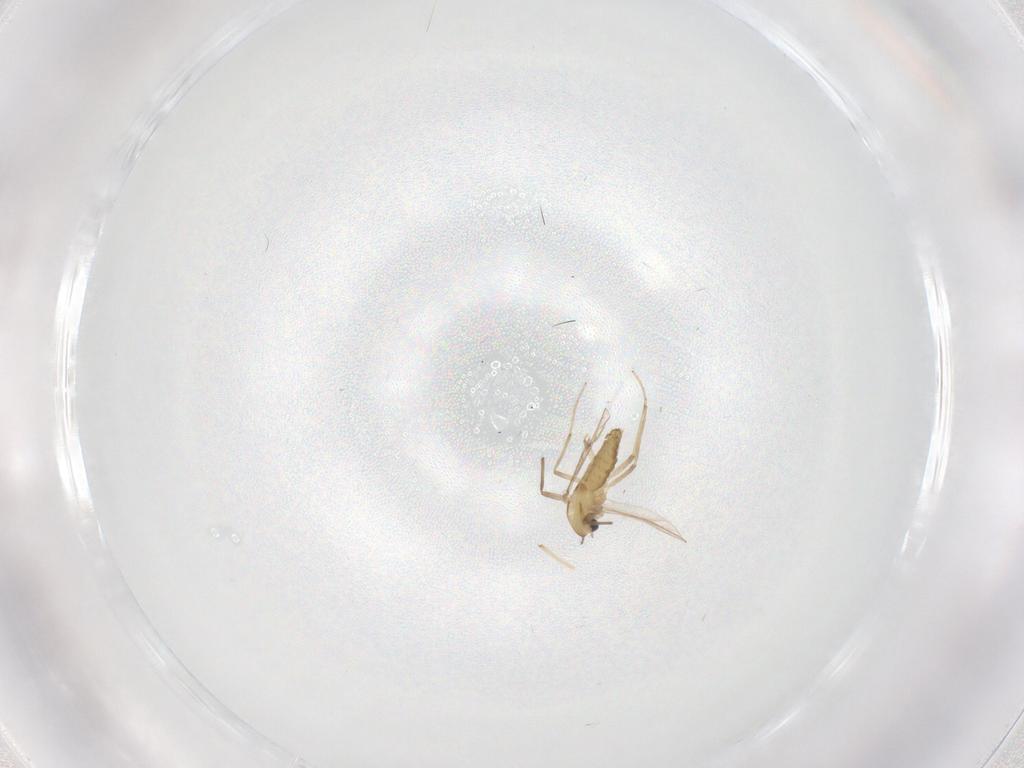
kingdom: Animalia
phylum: Arthropoda
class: Insecta
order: Diptera
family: Chironomidae
